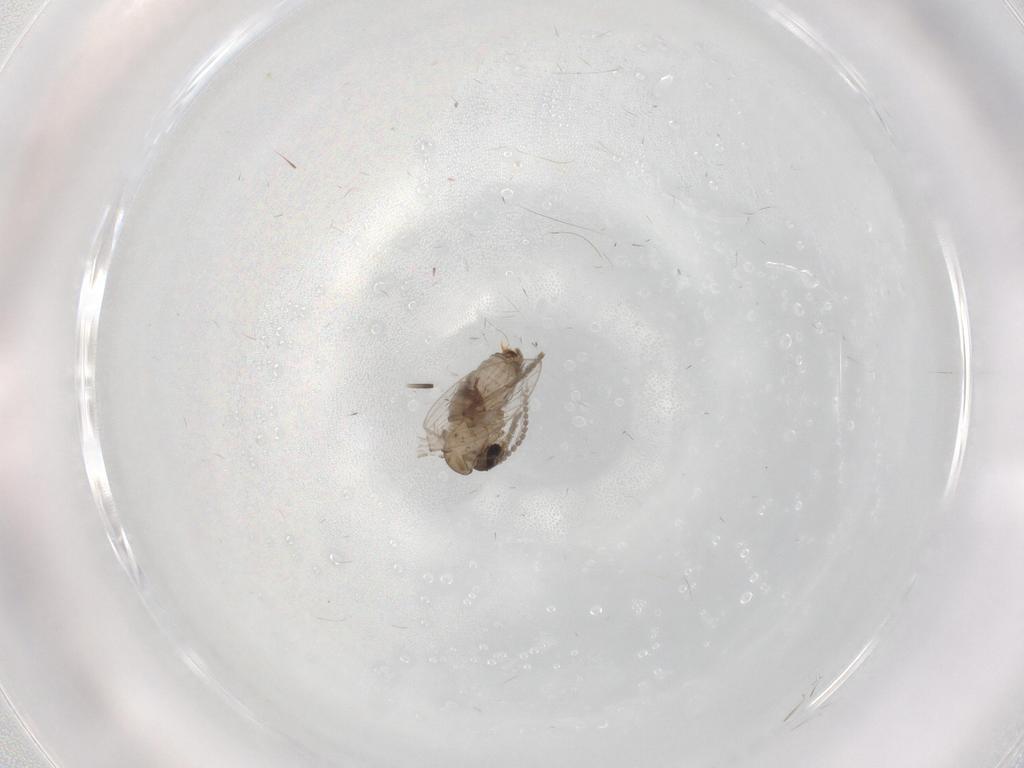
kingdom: Animalia
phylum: Arthropoda
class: Insecta
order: Diptera
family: Psychodidae
